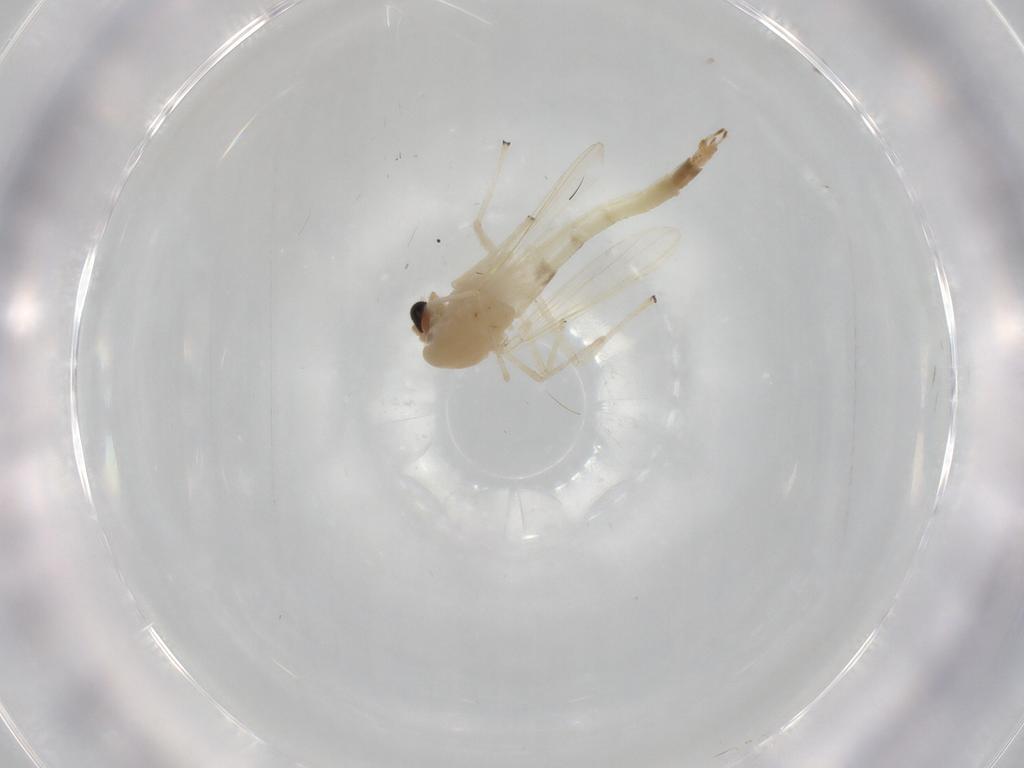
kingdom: Animalia
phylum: Arthropoda
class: Insecta
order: Diptera
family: Chironomidae
